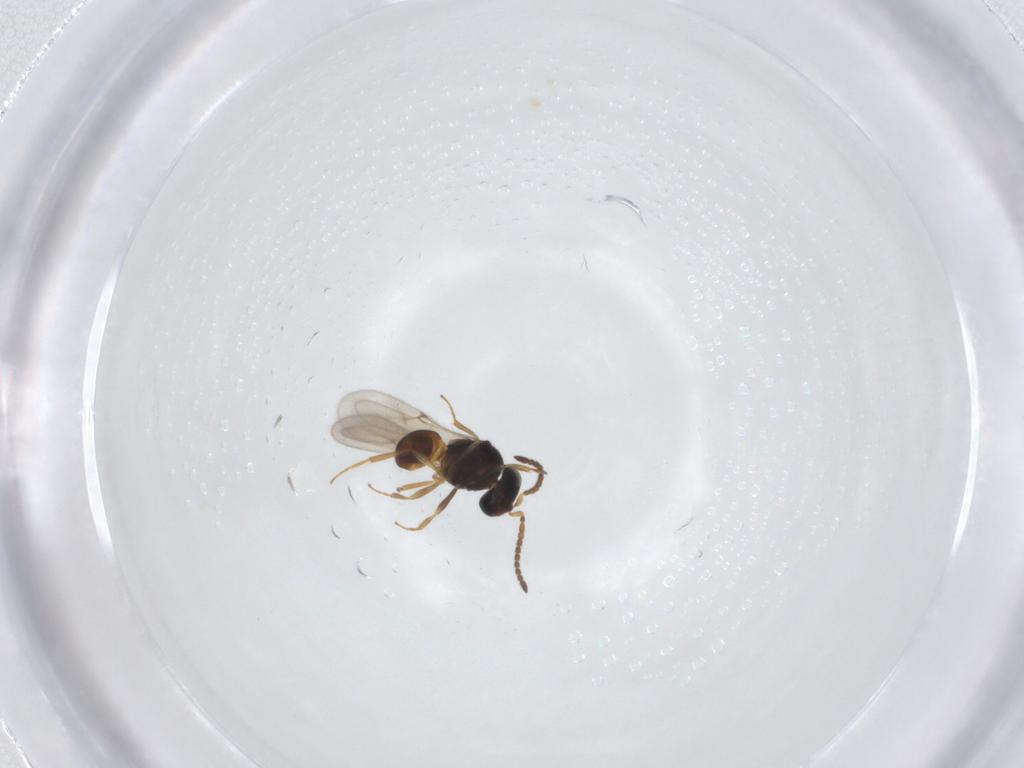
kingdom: Animalia
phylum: Arthropoda
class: Insecta
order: Hymenoptera
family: Scelionidae
